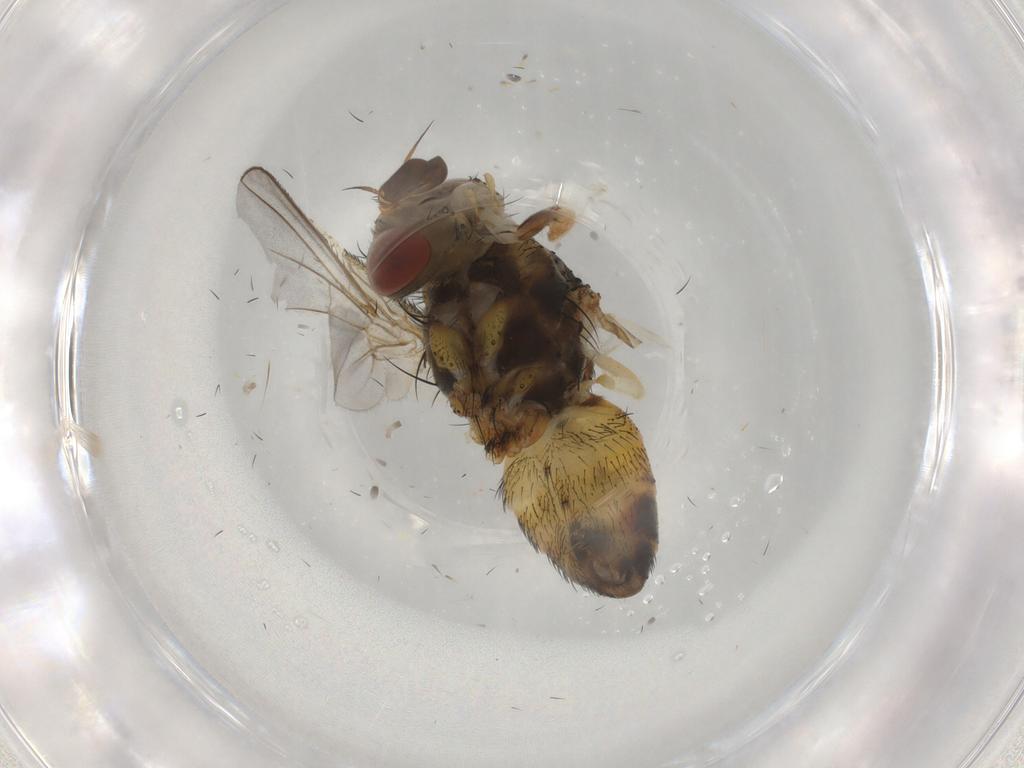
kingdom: Animalia
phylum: Arthropoda
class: Insecta
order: Diptera
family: Tachinidae
